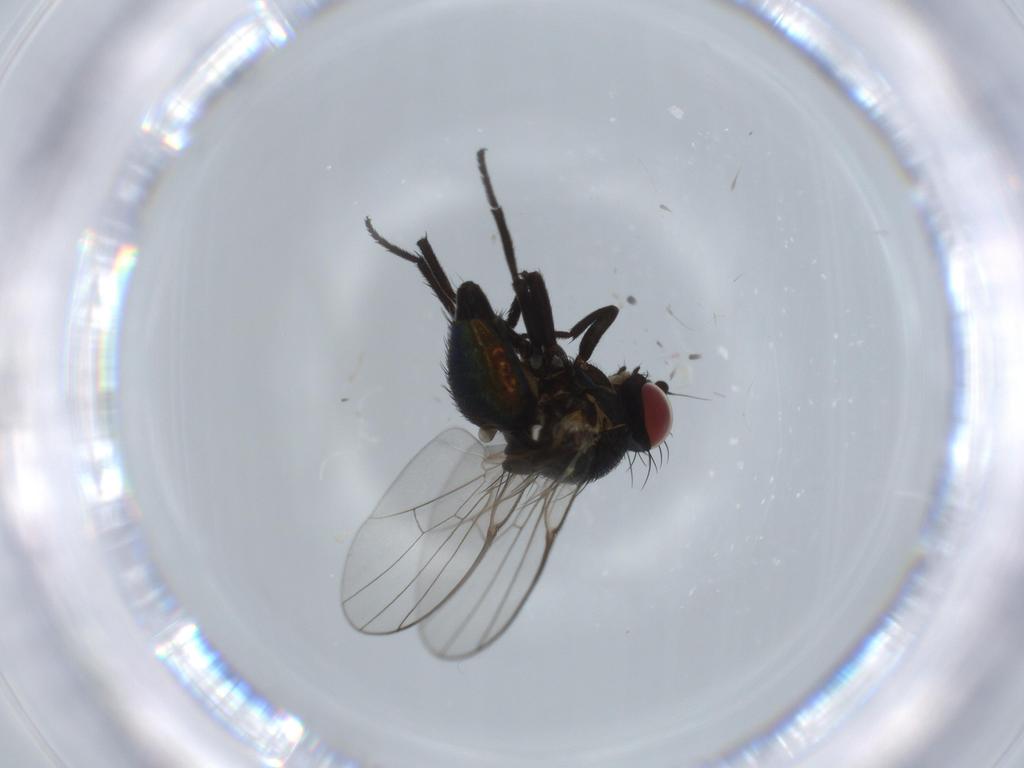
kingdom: Animalia
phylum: Arthropoda
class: Insecta
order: Diptera
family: Agromyzidae
